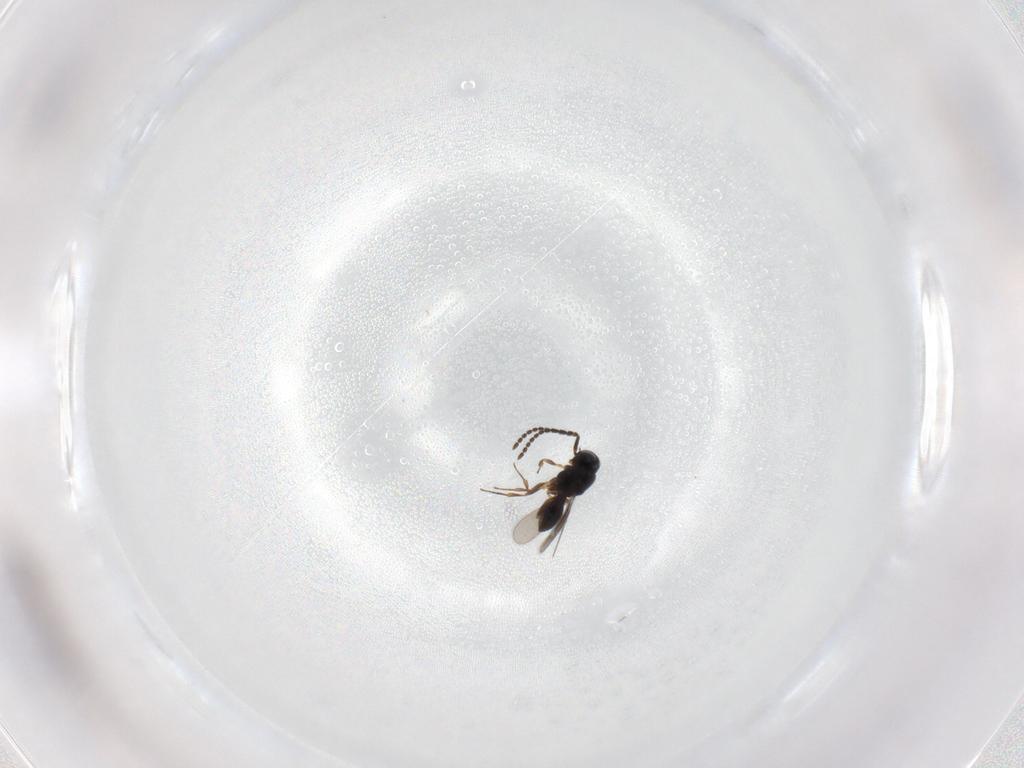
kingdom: Animalia
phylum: Arthropoda
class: Insecta
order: Hymenoptera
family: Scelionidae
